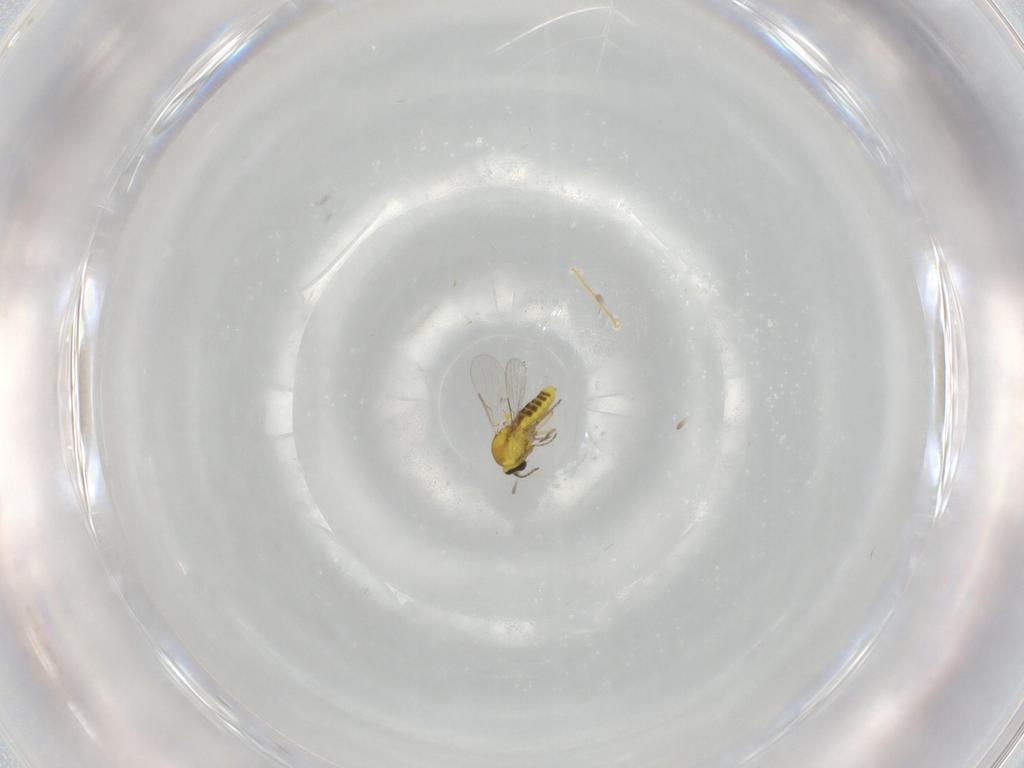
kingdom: Animalia
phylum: Arthropoda
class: Insecta
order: Diptera
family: Ceratopogonidae
